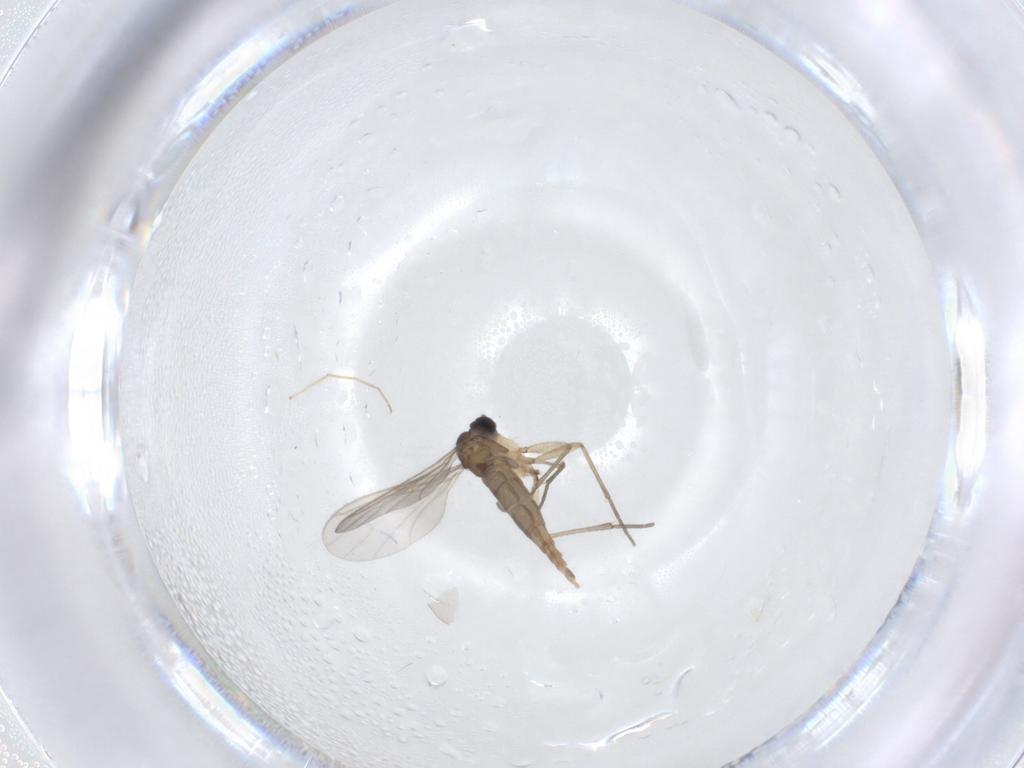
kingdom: Animalia
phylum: Arthropoda
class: Insecta
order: Diptera
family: Sciaridae
